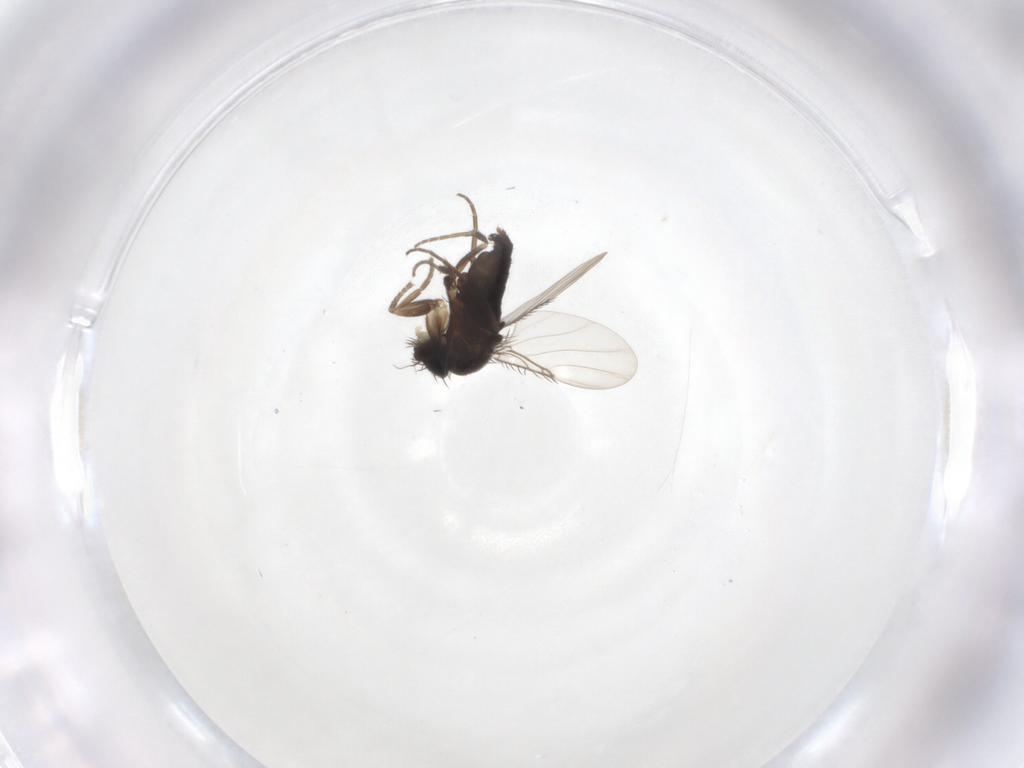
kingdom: Animalia
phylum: Arthropoda
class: Insecta
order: Diptera
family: Phoridae
